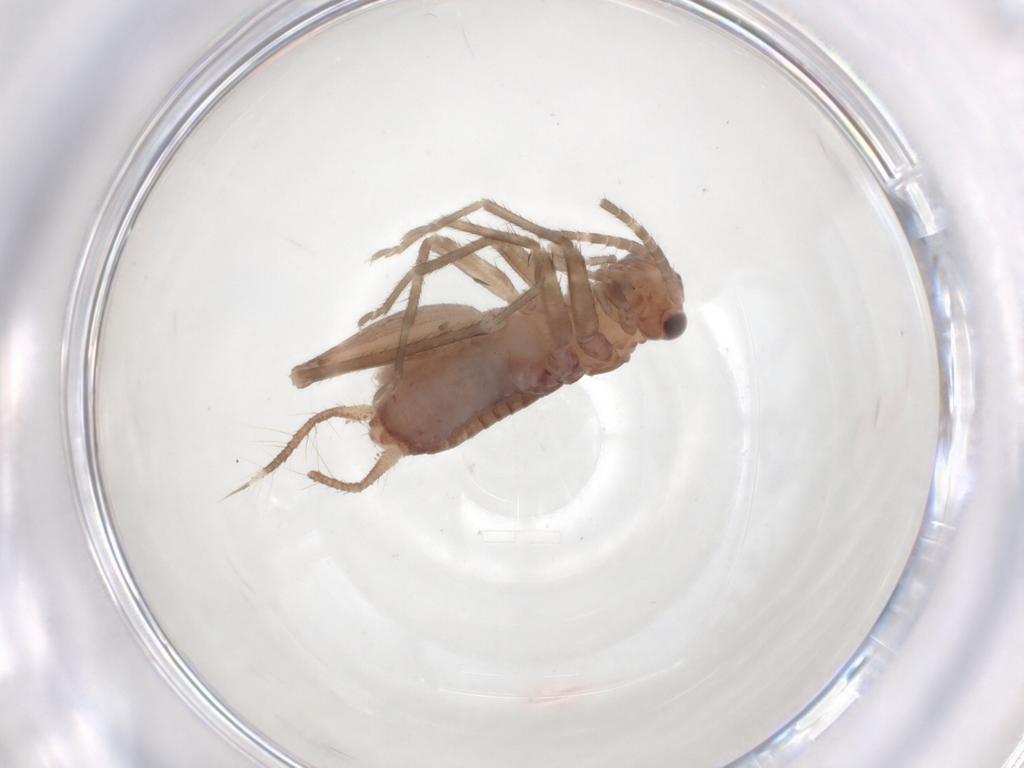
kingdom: Animalia
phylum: Arthropoda
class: Insecta
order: Orthoptera
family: Gryllidae
